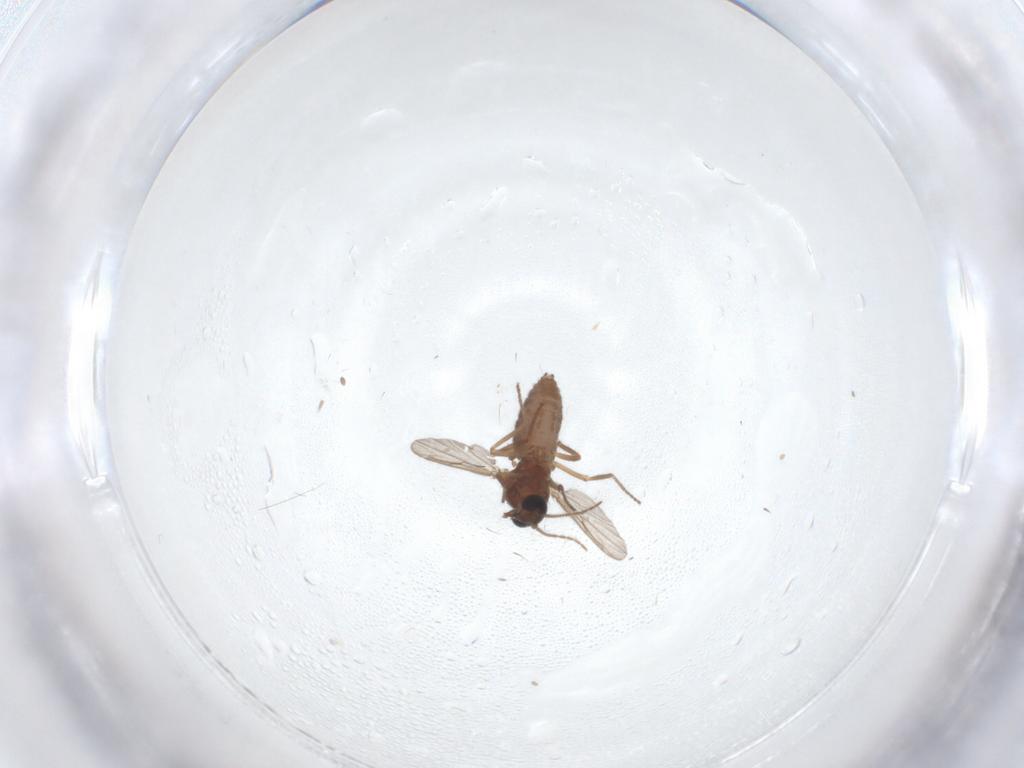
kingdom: Animalia
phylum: Arthropoda
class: Insecta
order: Diptera
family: Ceratopogonidae
